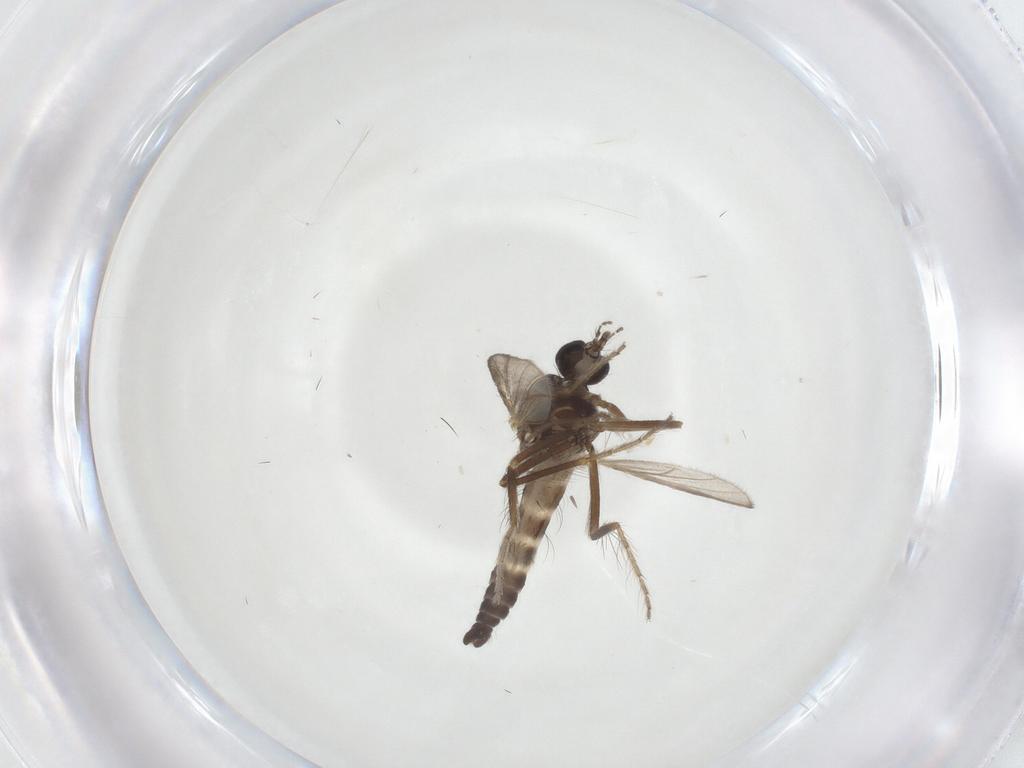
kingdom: Animalia
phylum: Arthropoda
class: Insecta
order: Diptera
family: Ceratopogonidae
